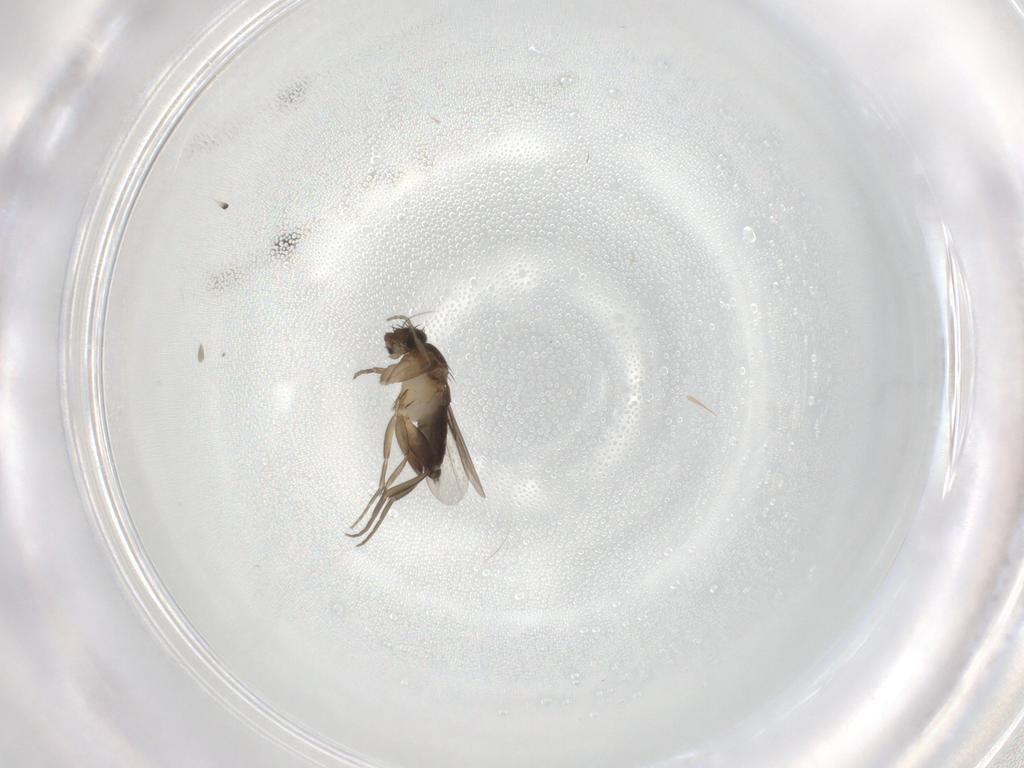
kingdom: Animalia
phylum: Arthropoda
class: Insecta
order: Diptera
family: Phoridae
